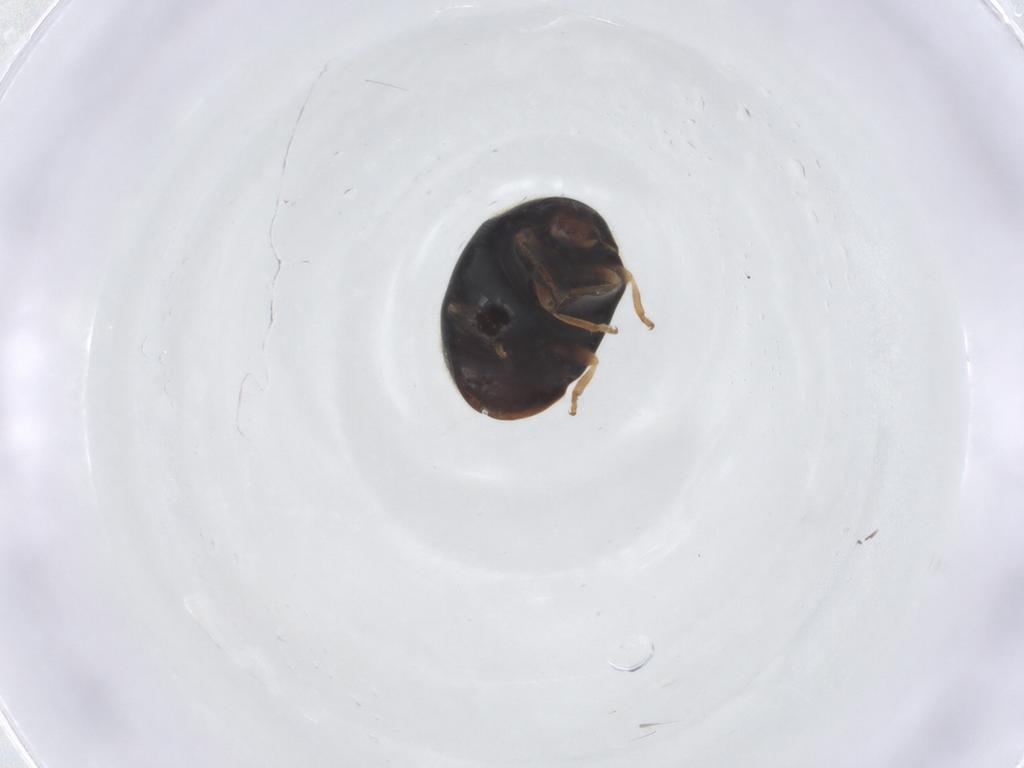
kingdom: Animalia
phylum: Arthropoda
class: Insecta
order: Coleoptera
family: Coccinellidae
